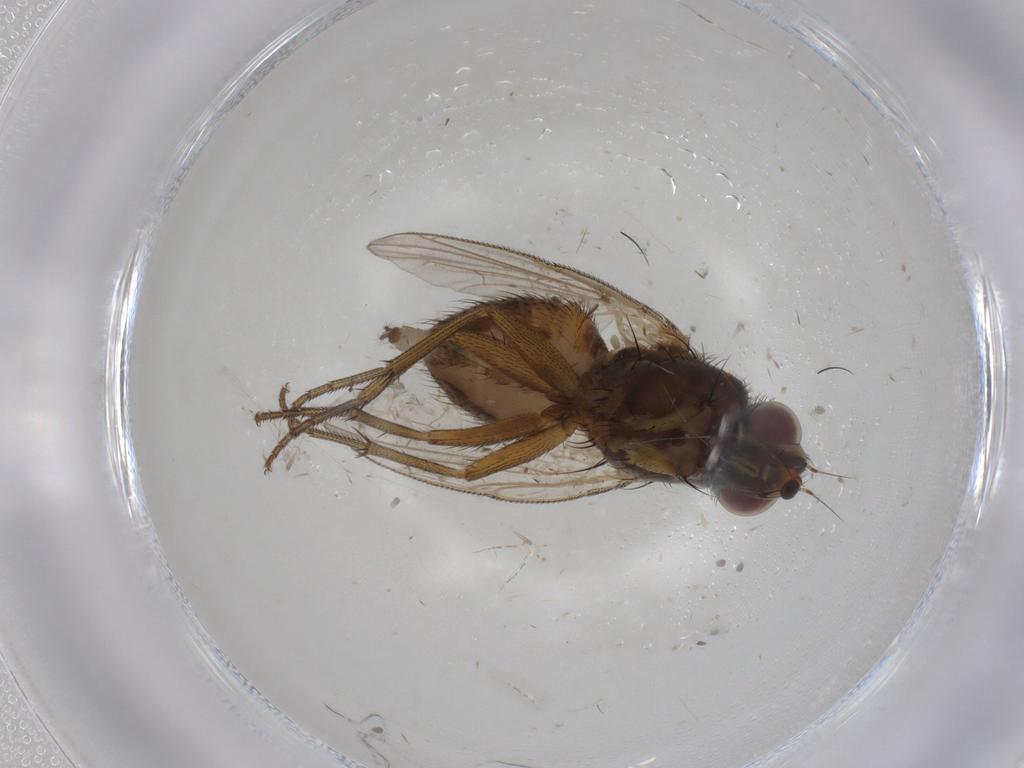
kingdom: Animalia
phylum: Arthropoda
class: Insecta
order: Diptera
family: Muscidae
